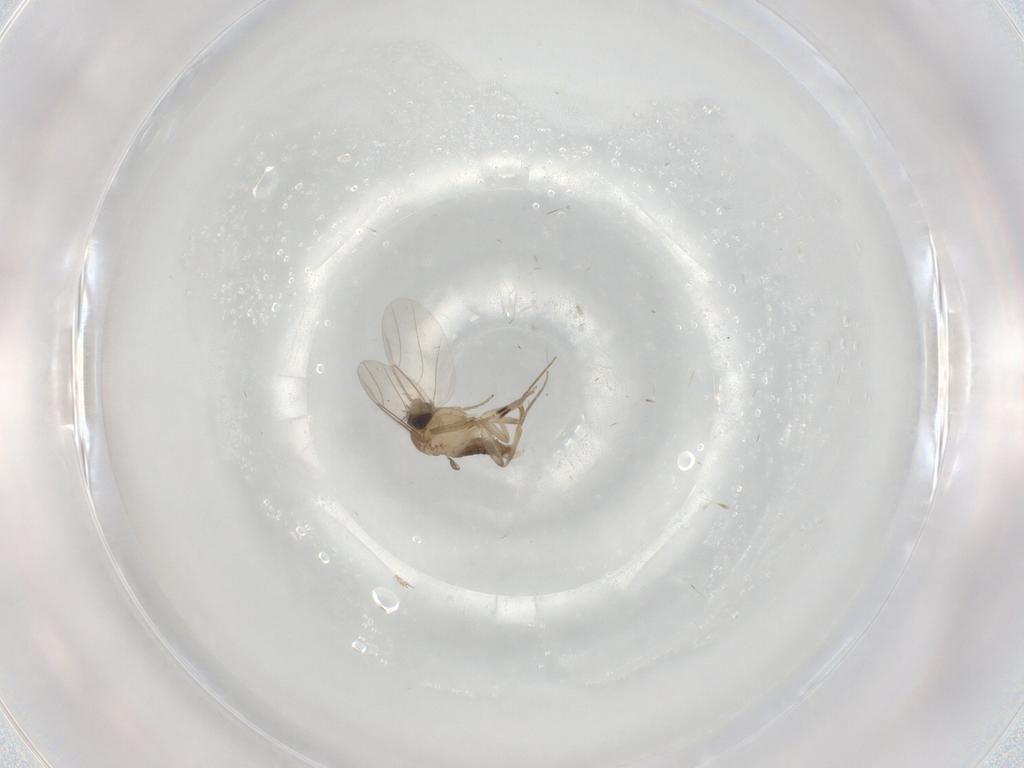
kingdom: Animalia
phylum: Arthropoda
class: Insecta
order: Diptera
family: Phoridae
